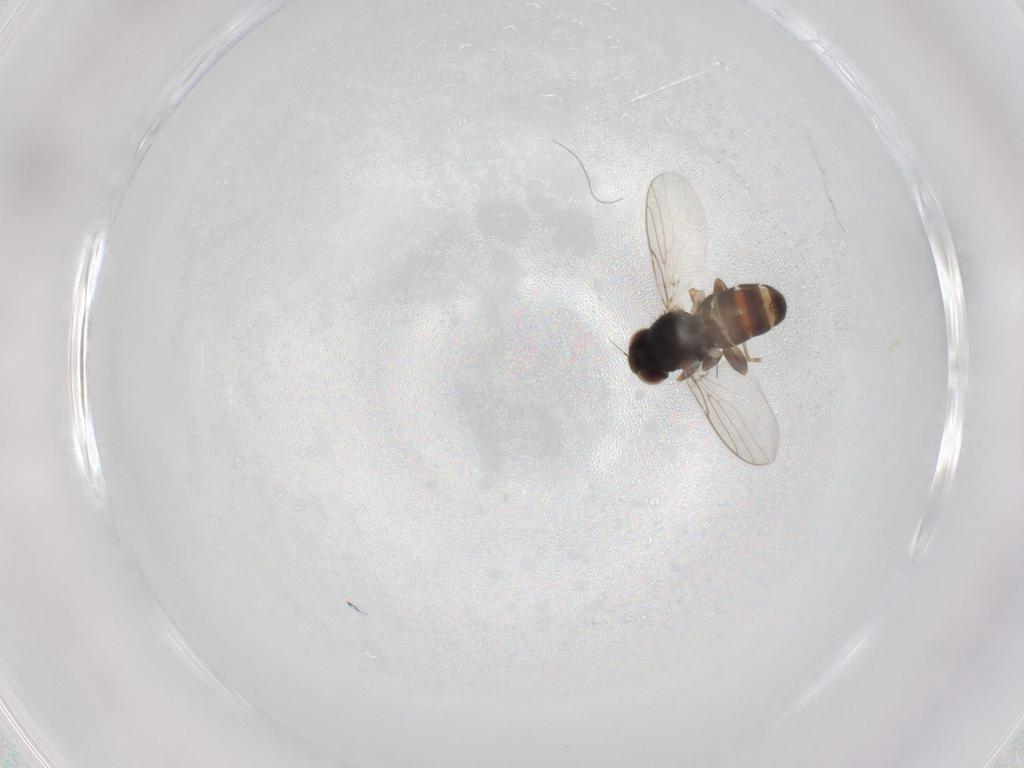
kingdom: Animalia
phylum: Arthropoda
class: Insecta
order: Diptera
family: Chloropidae
